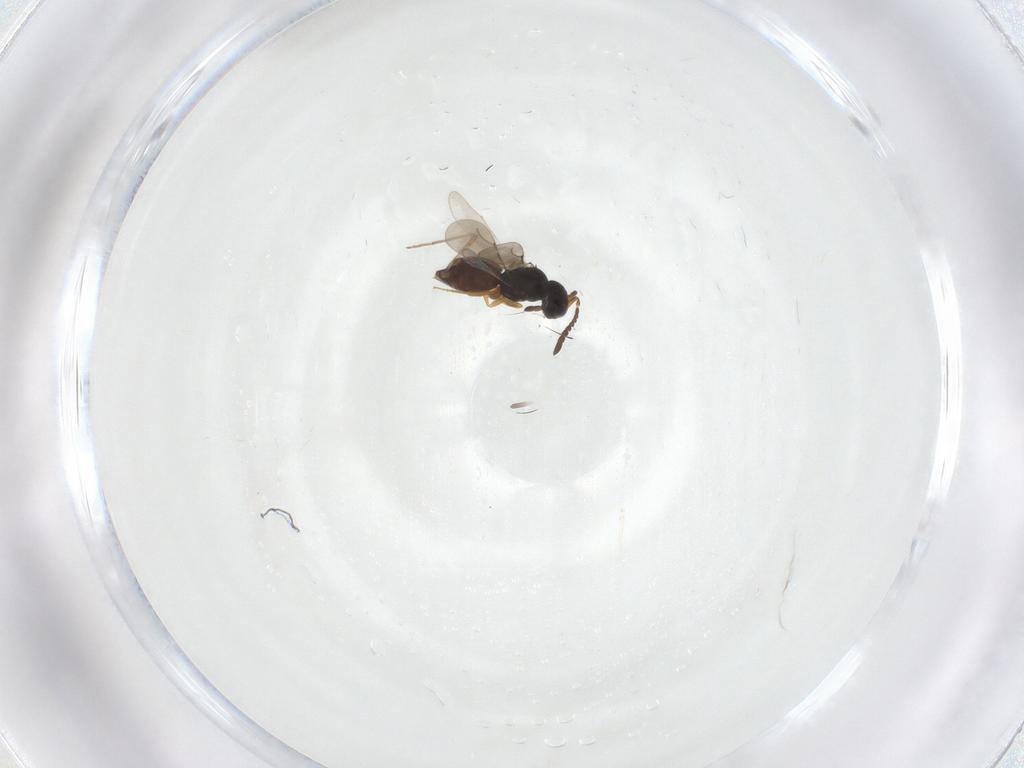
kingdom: Animalia
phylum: Arthropoda
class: Insecta
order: Hymenoptera
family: Ceraphronidae
